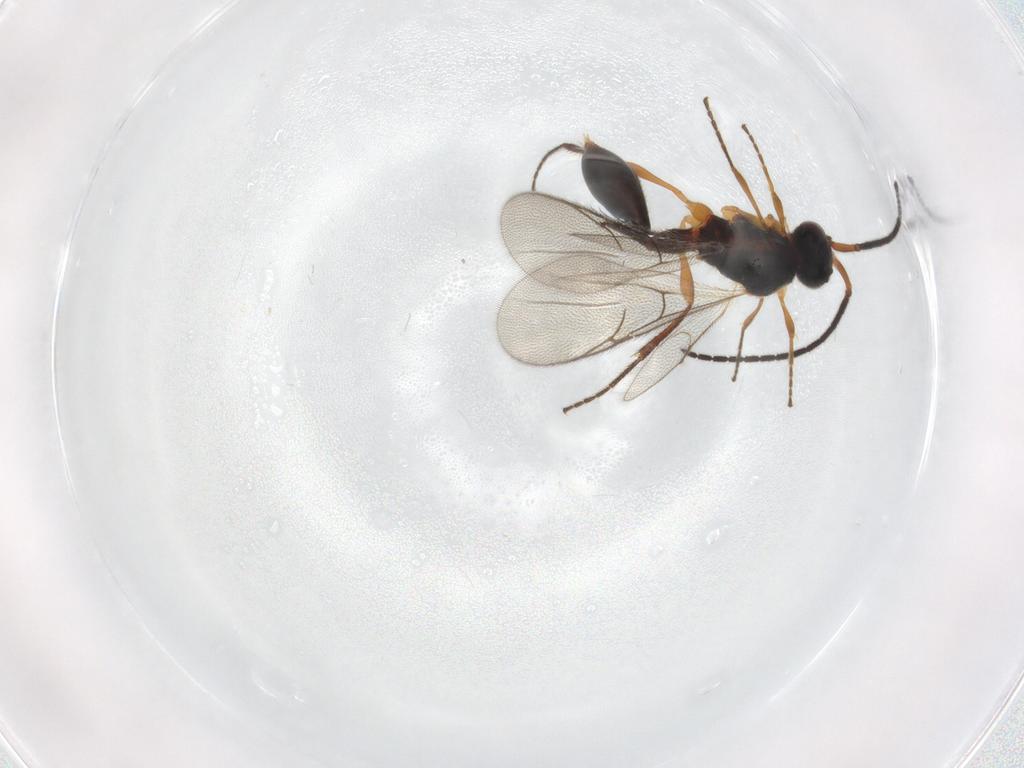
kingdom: Animalia
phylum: Arthropoda
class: Insecta
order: Hymenoptera
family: Diapriidae
